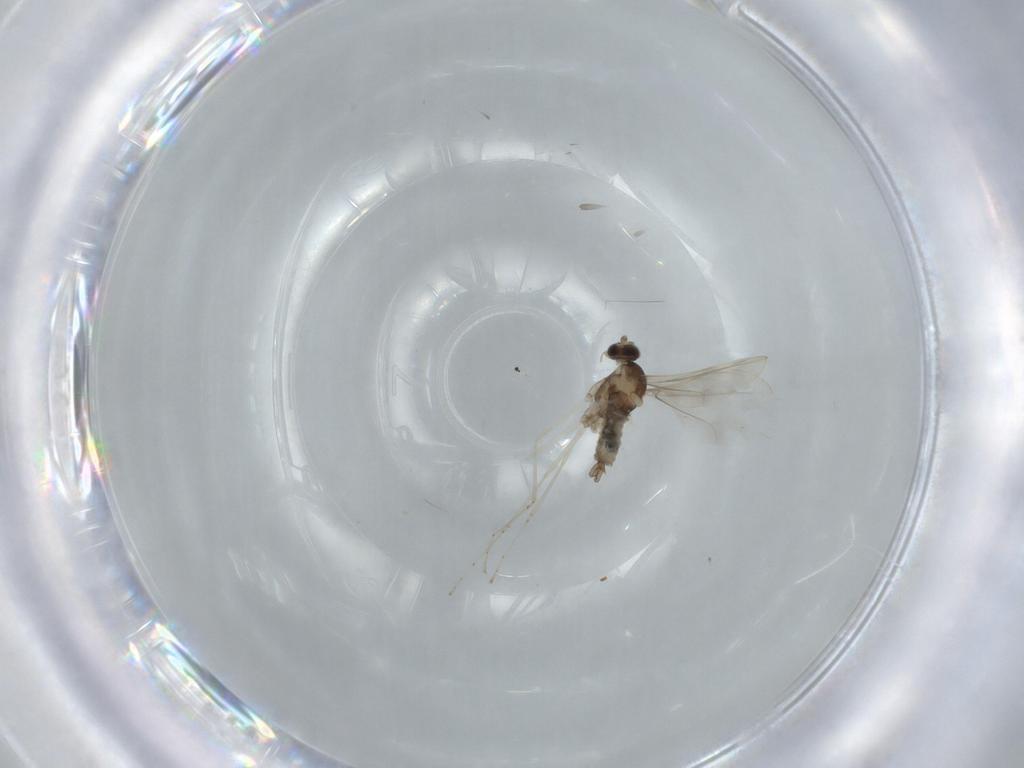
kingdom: Animalia
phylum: Arthropoda
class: Insecta
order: Diptera
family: Cecidomyiidae
